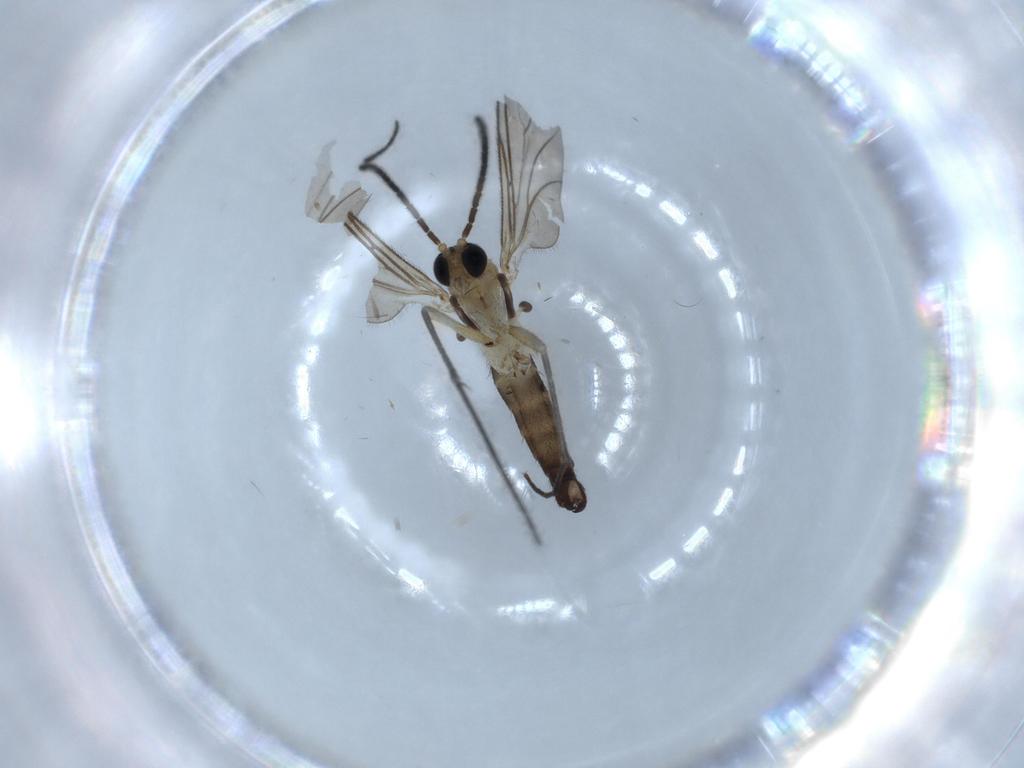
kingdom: Animalia
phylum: Arthropoda
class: Insecta
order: Diptera
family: Sciaridae
